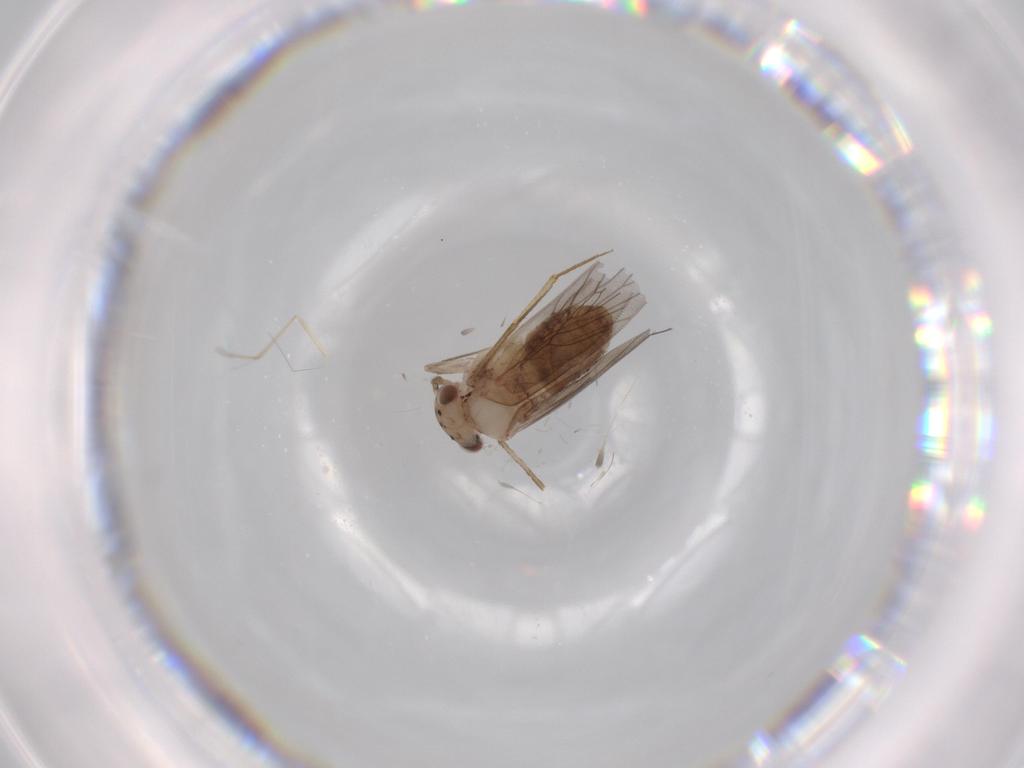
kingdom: Animalia
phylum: Arthropoda
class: Insecta
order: Psocodea
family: Lepidopsocidae
